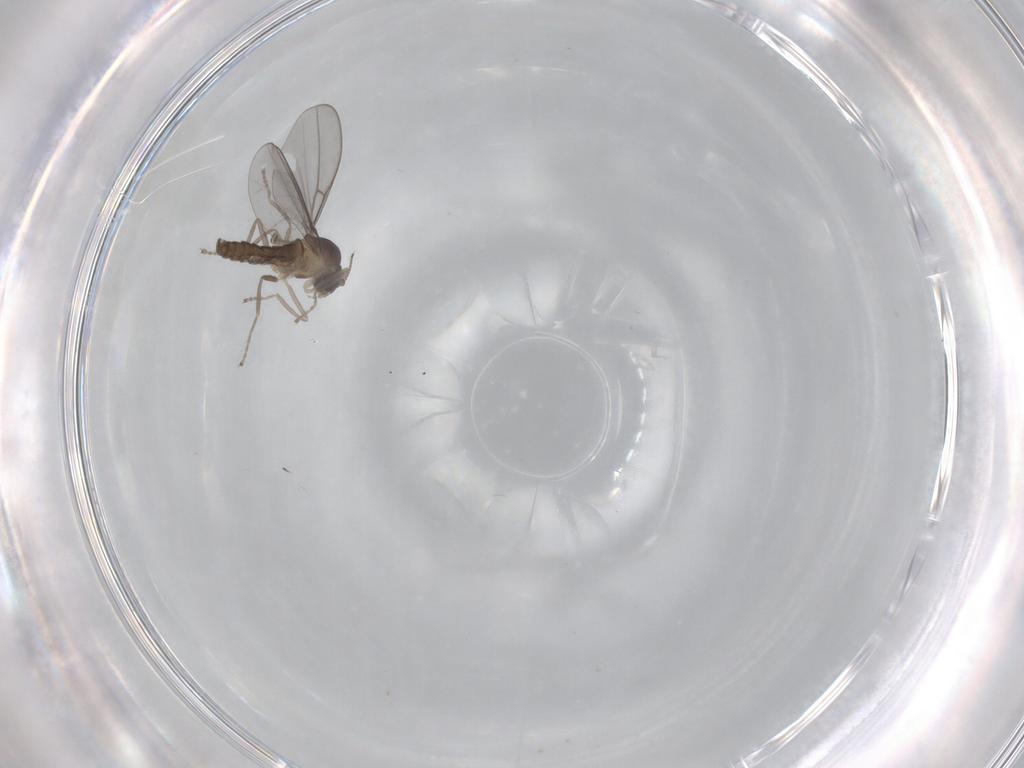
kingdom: Animalia
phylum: Arthropoda
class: Insecta
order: Diptera
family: Cecidomyiidae
